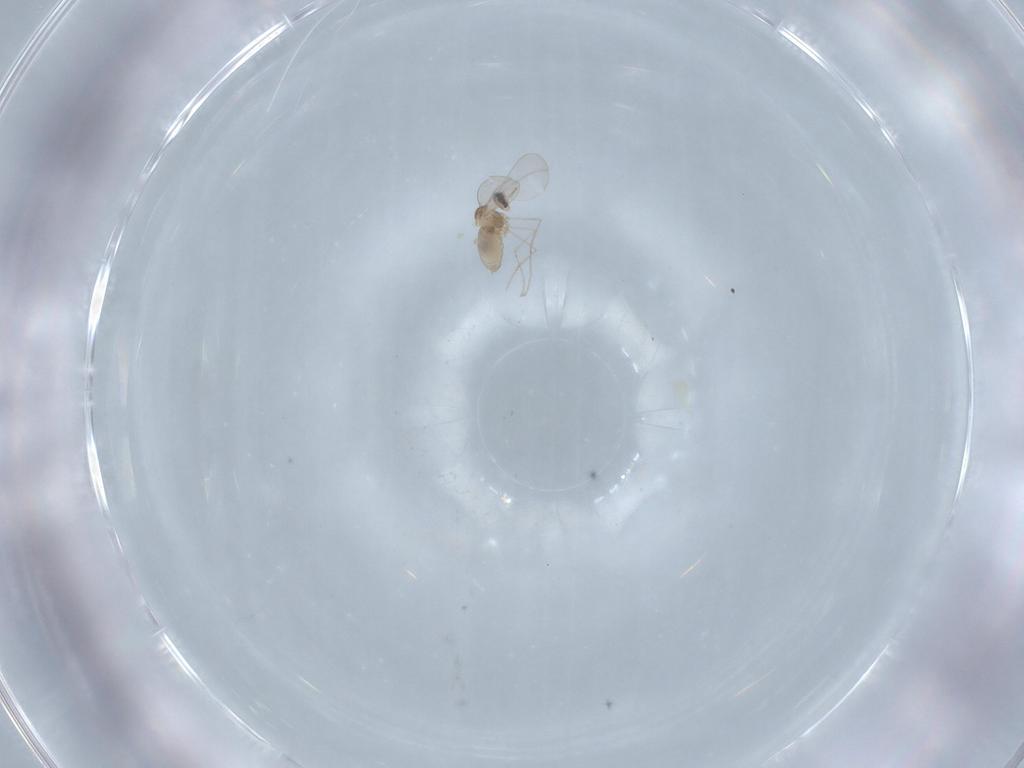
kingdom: Animalia
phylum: Arthropoda
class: Insecta
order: Diptera
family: Cecidomyiidae
